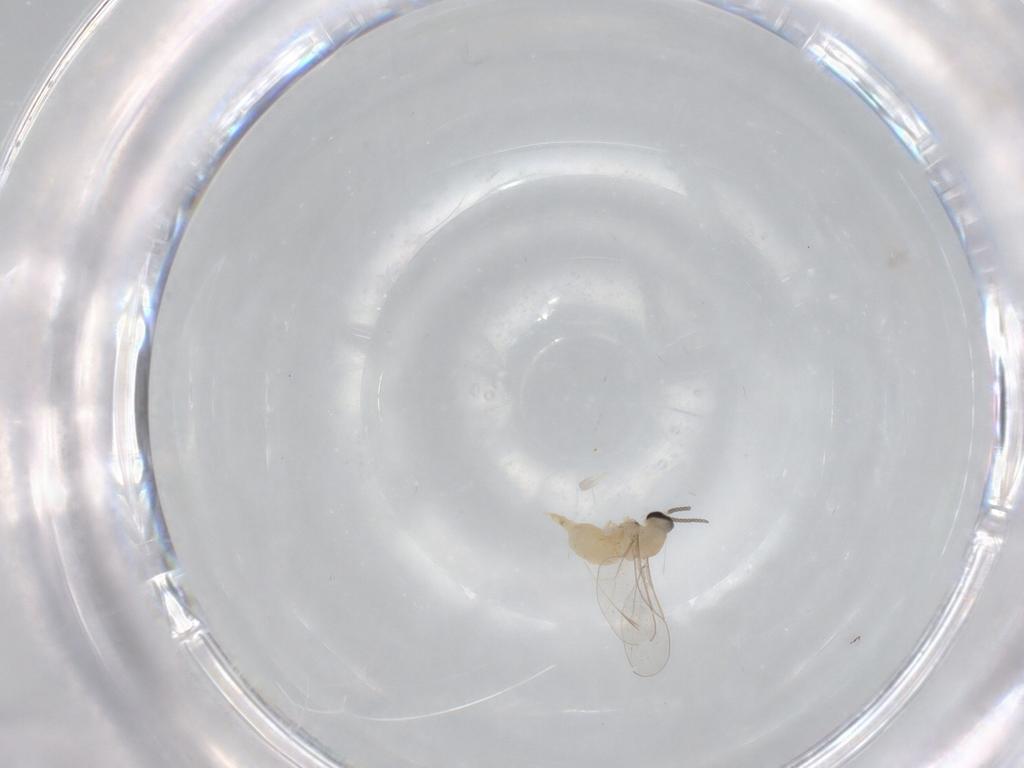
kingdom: Animalia
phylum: Arthropoda
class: Insecta
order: Diptera
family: Cecidomyiidae
